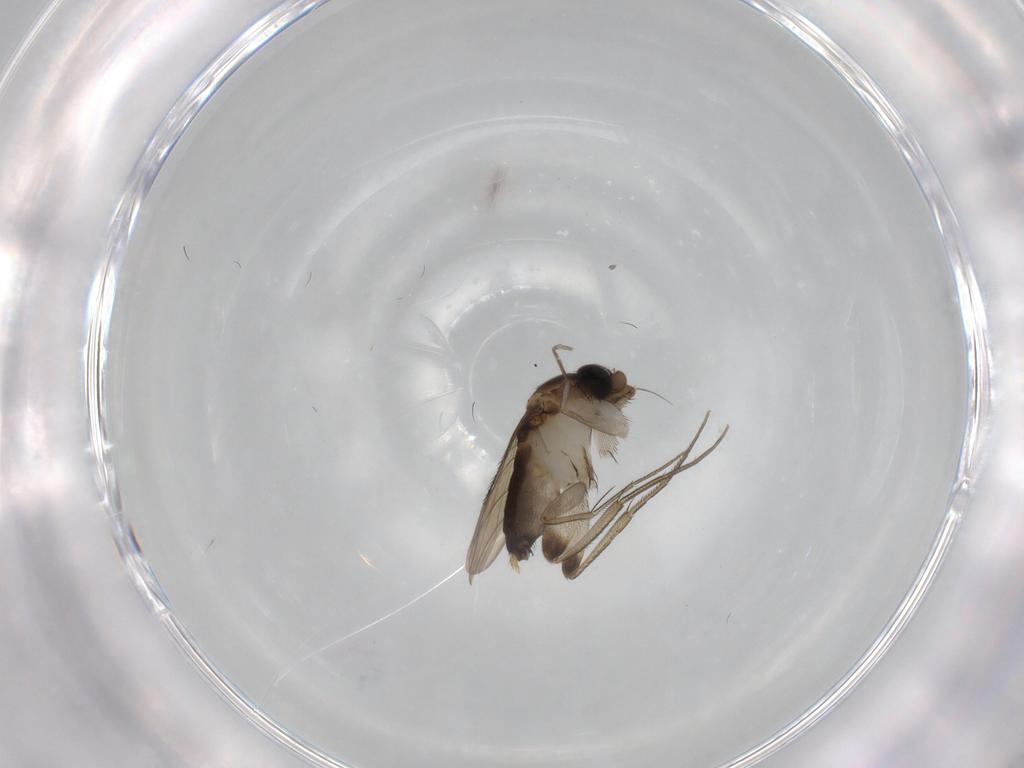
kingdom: Animalia
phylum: Arthropoda
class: Insecta
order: Diptera
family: Phoridae
